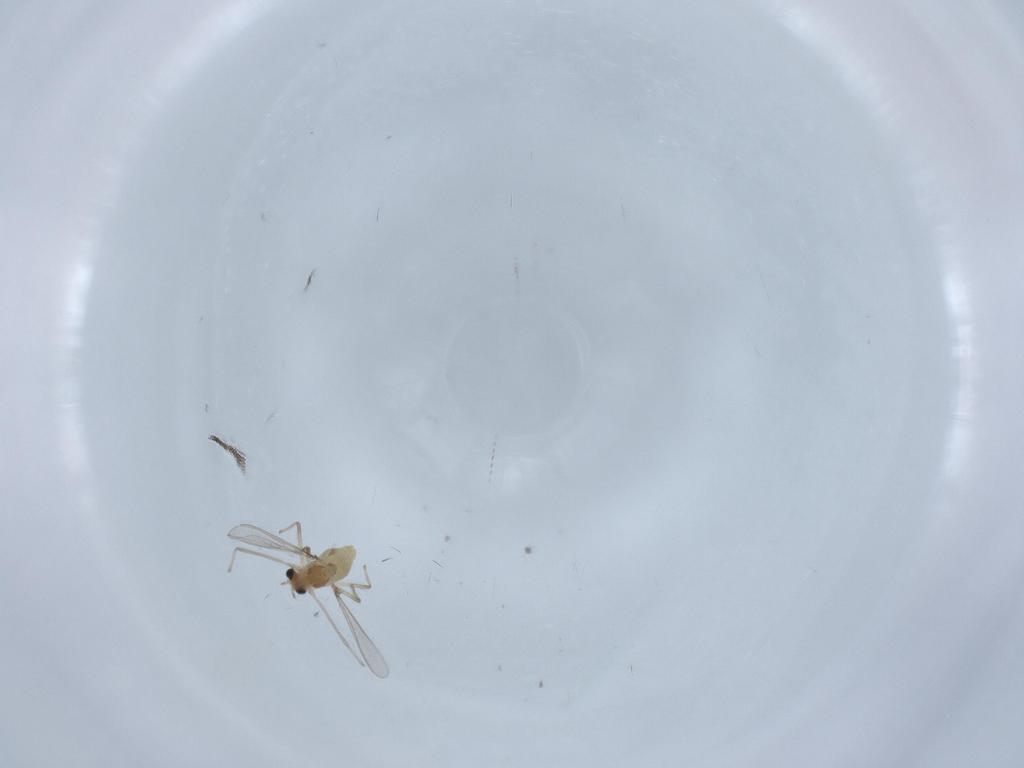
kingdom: Animalia
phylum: Arthropoda
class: Insecta
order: Diptera
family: Chironomidae
